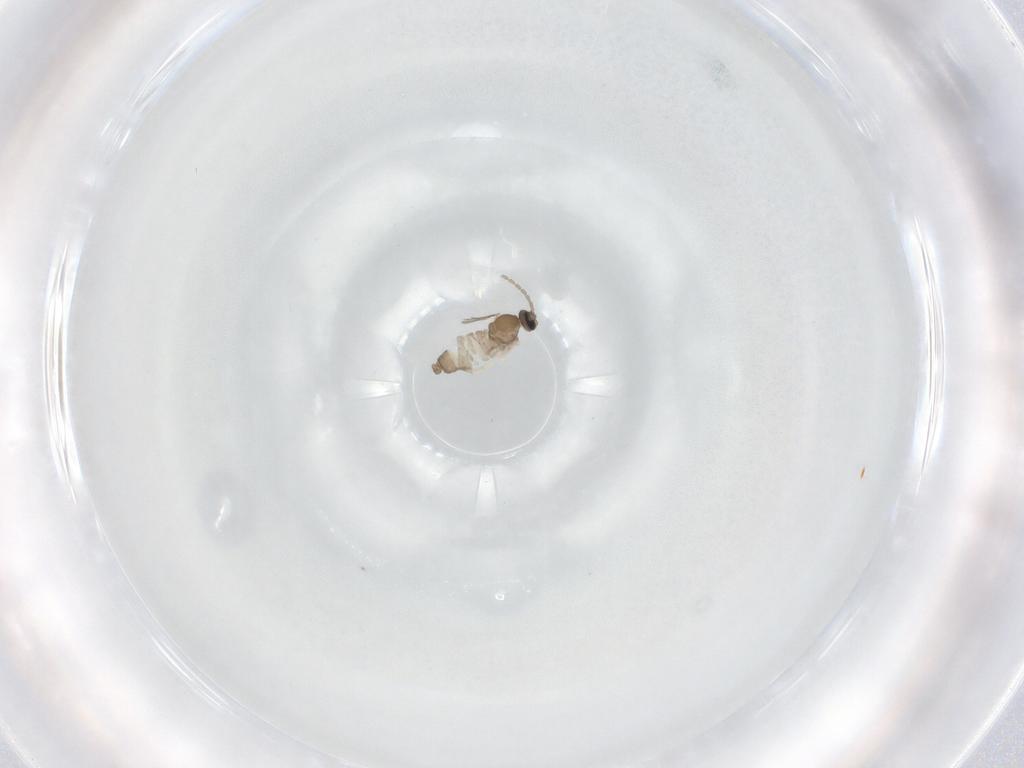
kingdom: Animalia
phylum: Arthropoda
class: Insecta
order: Diptera
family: Cecidomyiidae
